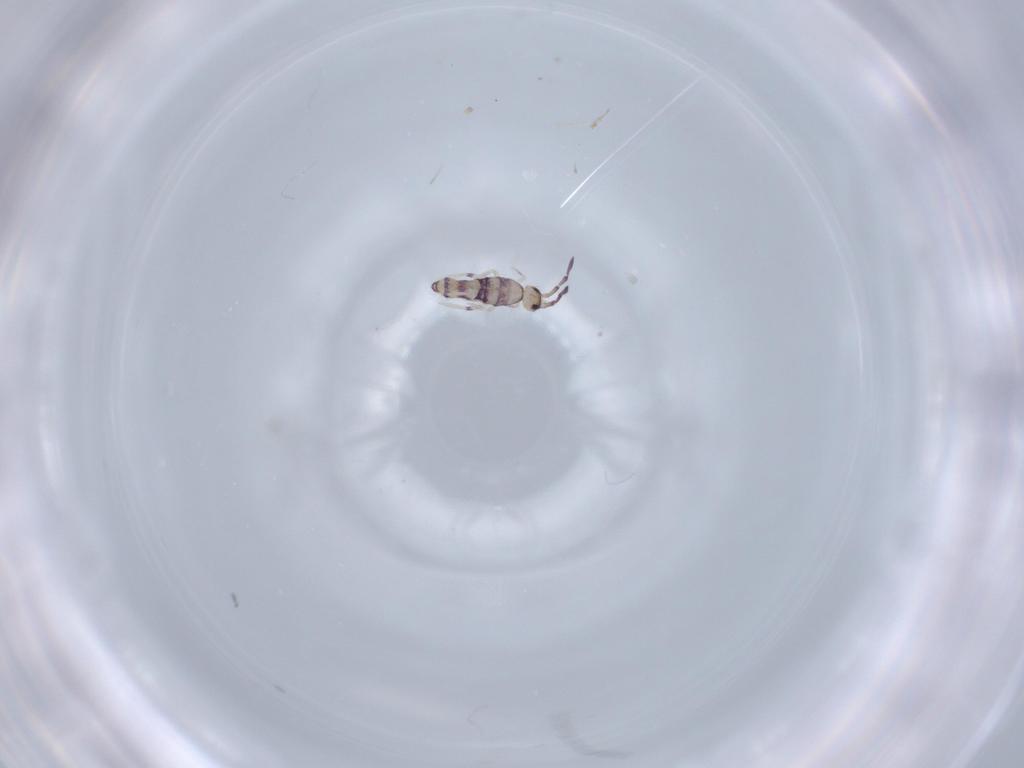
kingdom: Animalia
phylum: Arthropoda
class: Collembola
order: Entomobryomorpha
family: Entomobryidae
